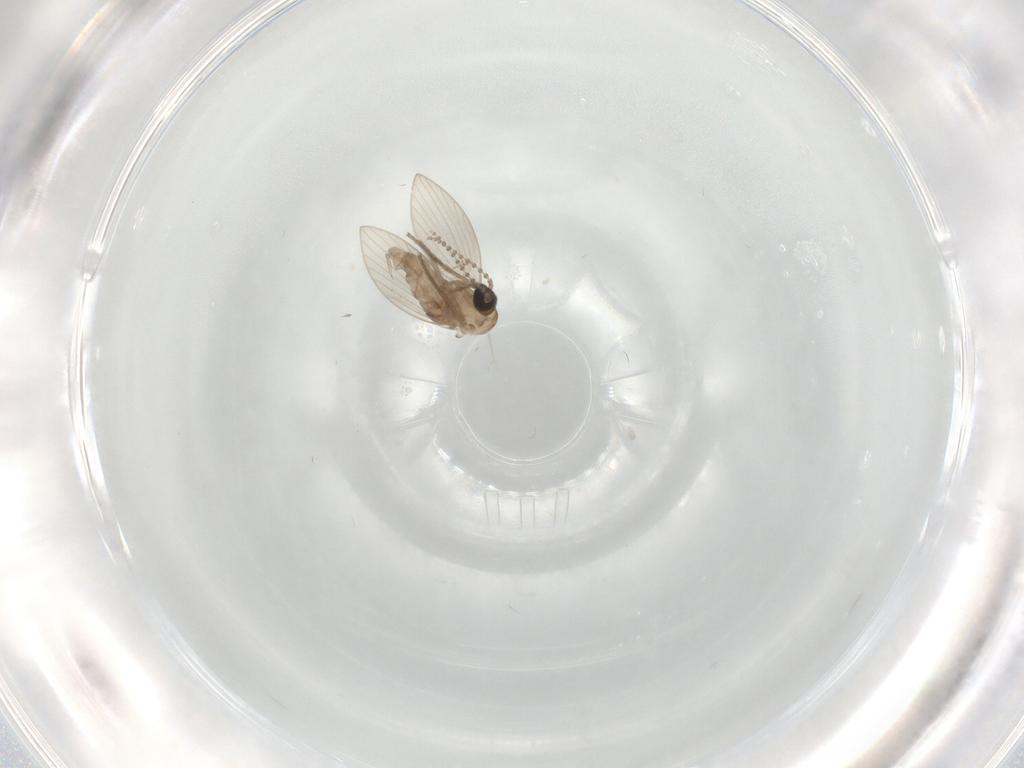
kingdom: Animalia
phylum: Arthropoda
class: Insecta
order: Diptera
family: Psychodidae
